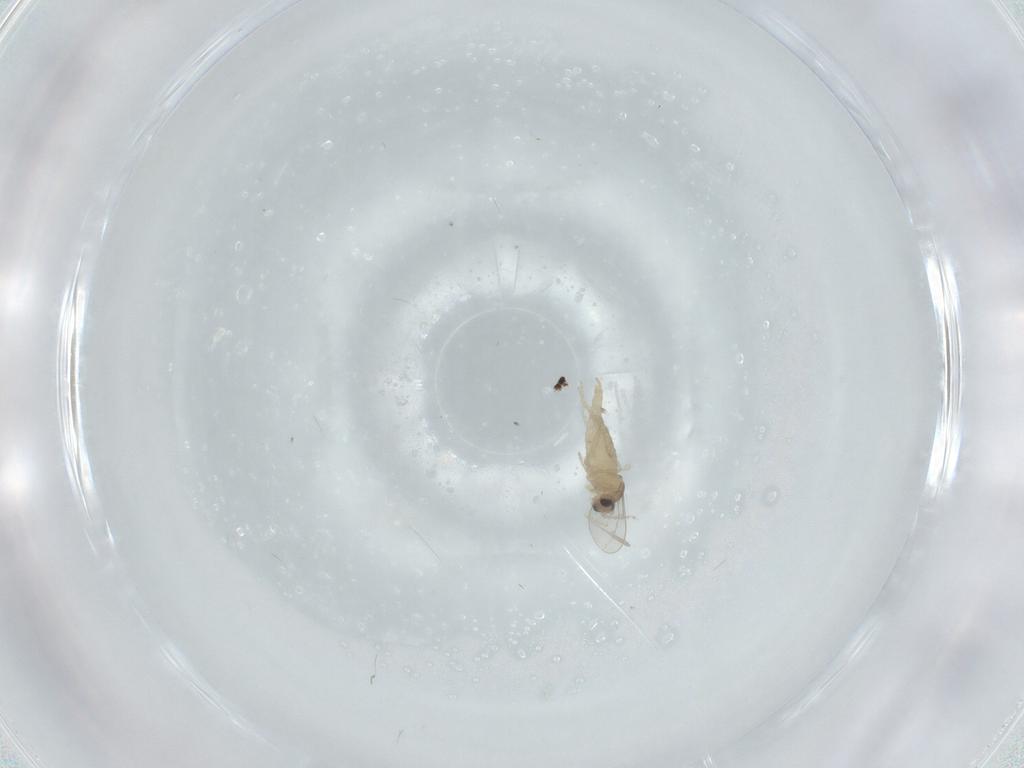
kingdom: Animalia
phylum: Arthropoda
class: Insecta
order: Diptera
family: Cecidomyiidae
